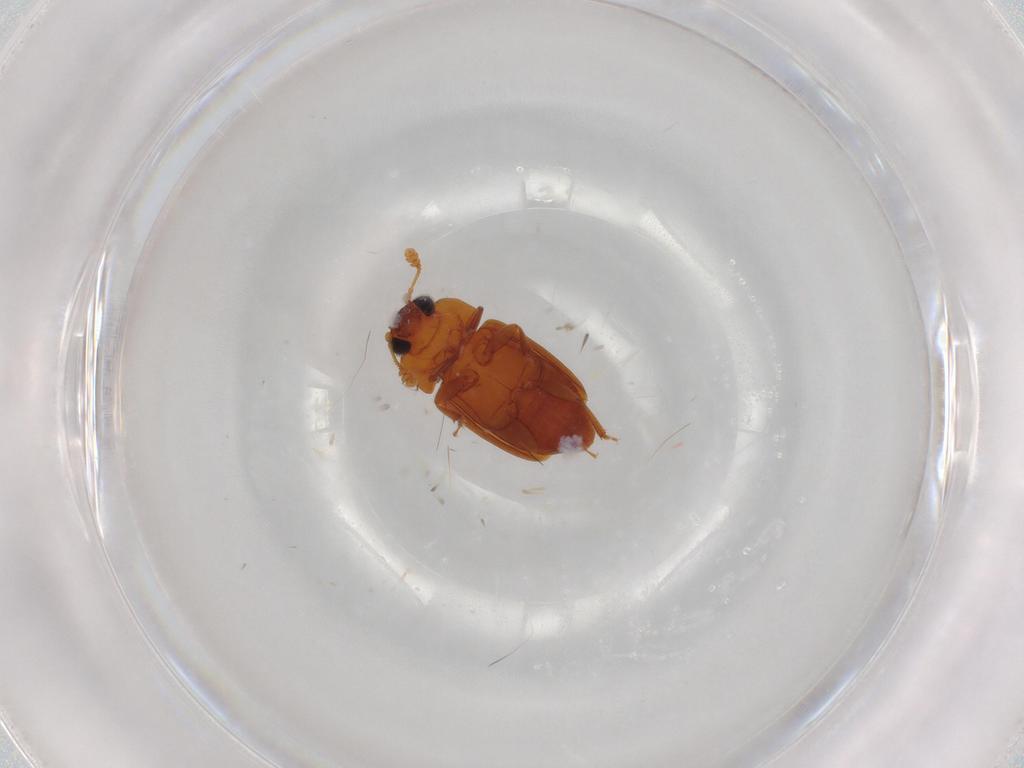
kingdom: Animalia
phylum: Arthropoda
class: Insecta
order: Coleoptera
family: Nitidulidae
